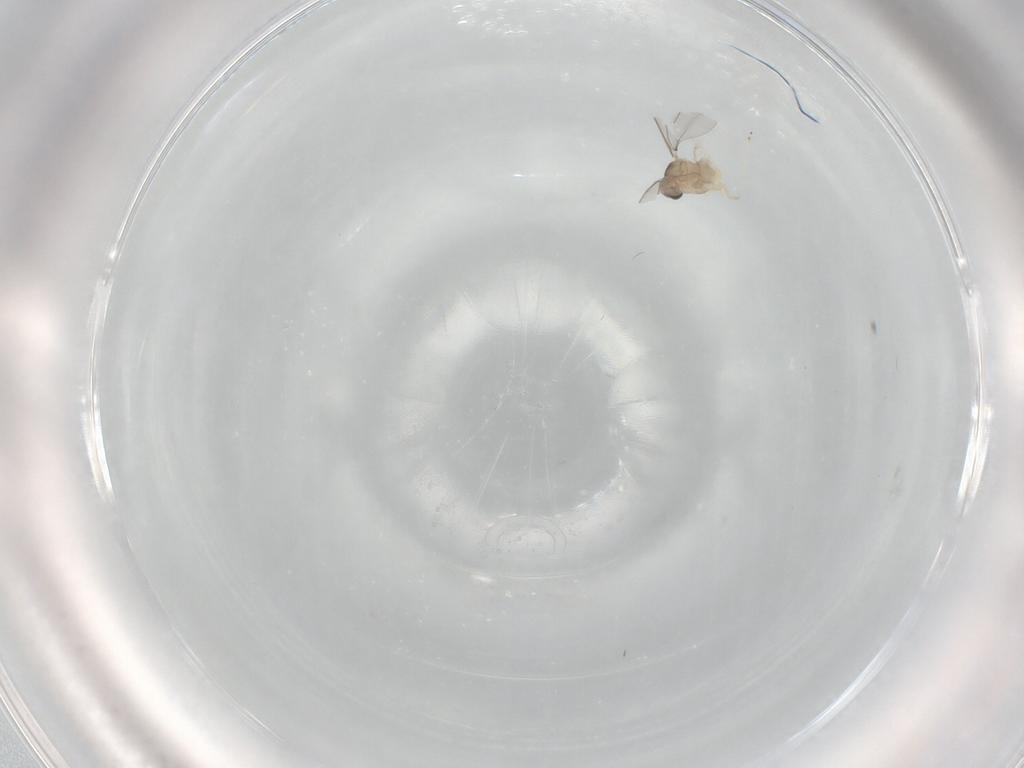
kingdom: Animalia
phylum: Arthropoda
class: Insecta
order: Diptera
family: Cecidomyiidae
